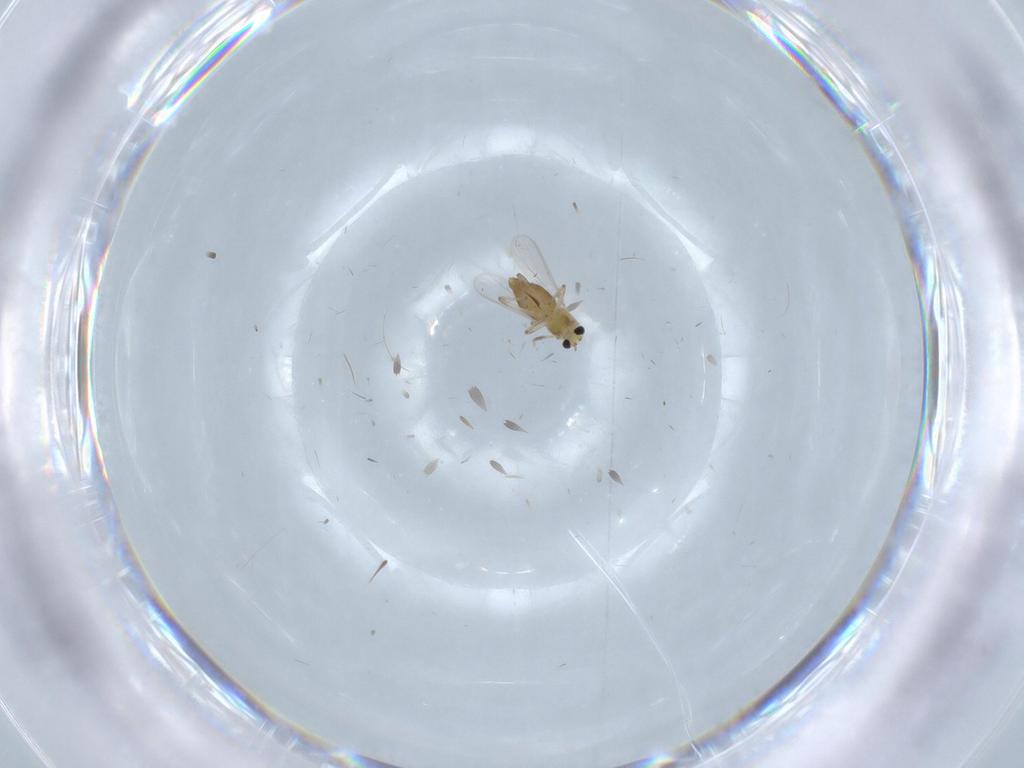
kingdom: Animalia
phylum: Arthropoda
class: Insecta
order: Diptera
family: Chironomidae
